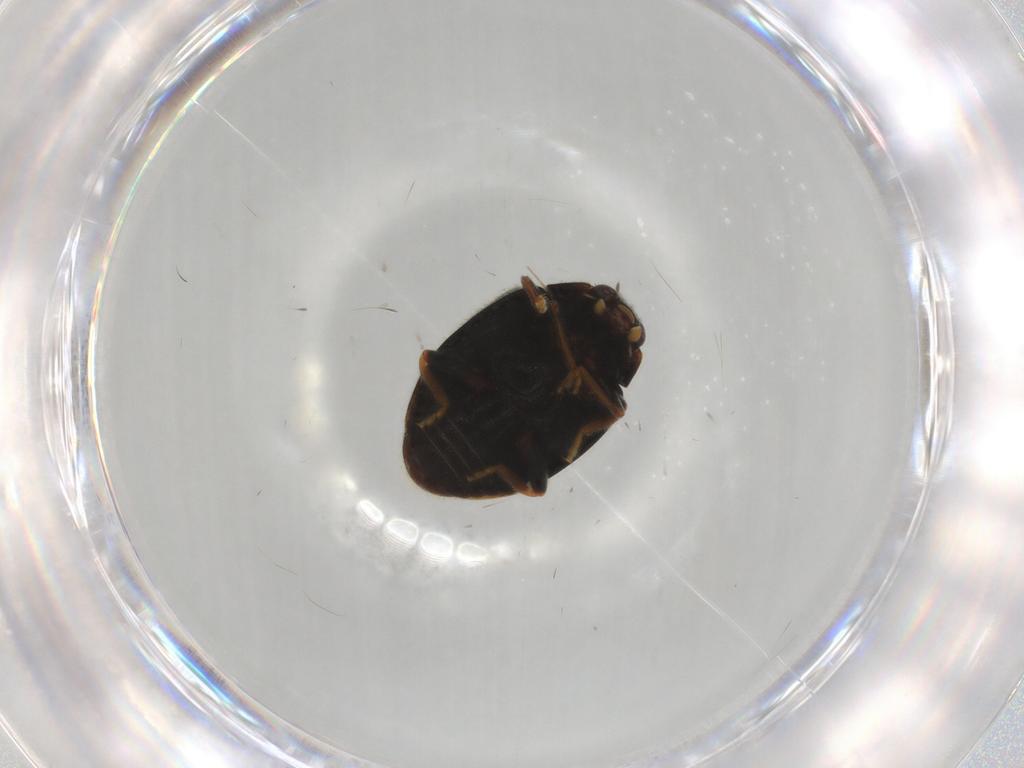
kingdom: Animalia
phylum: Arthropoda
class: Insecta
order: Coleoptera
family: Coccinellidae
